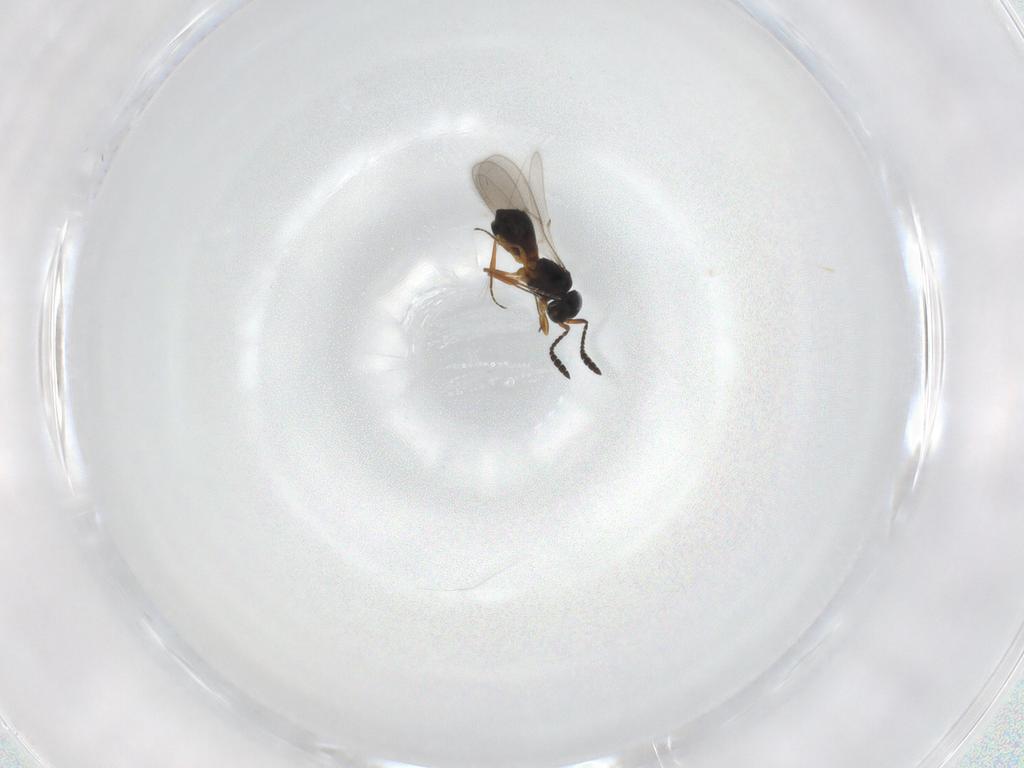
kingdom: Animalia
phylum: Arthropoda
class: Insecta
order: Hymenoptera
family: Scelionidae
